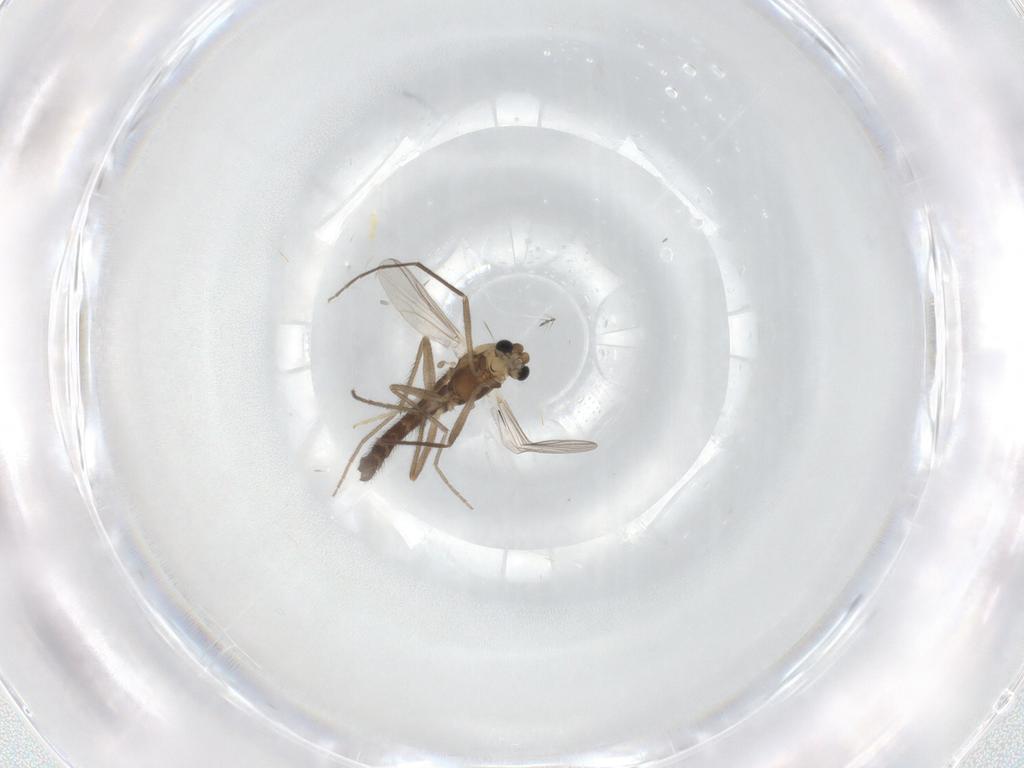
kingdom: Animalia
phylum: Arthropoda
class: Insecta
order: Diptera
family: Chironomidae
